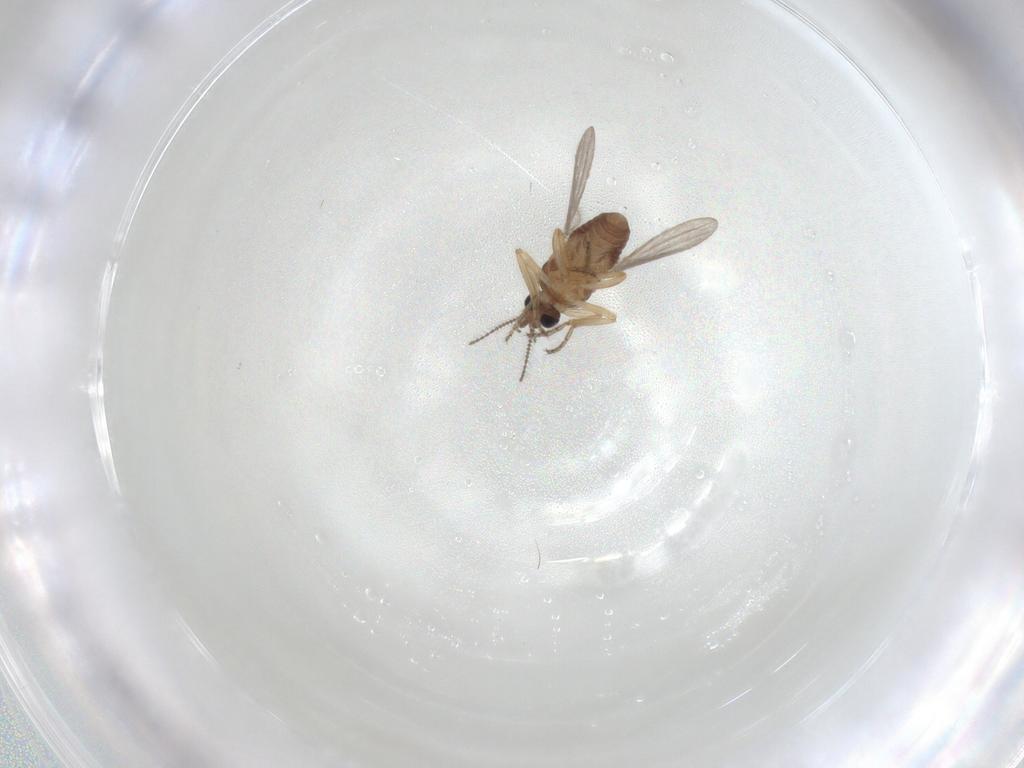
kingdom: Animalia
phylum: Arthropoda
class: Insecta
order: Diptera
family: Ceratopogonidae
